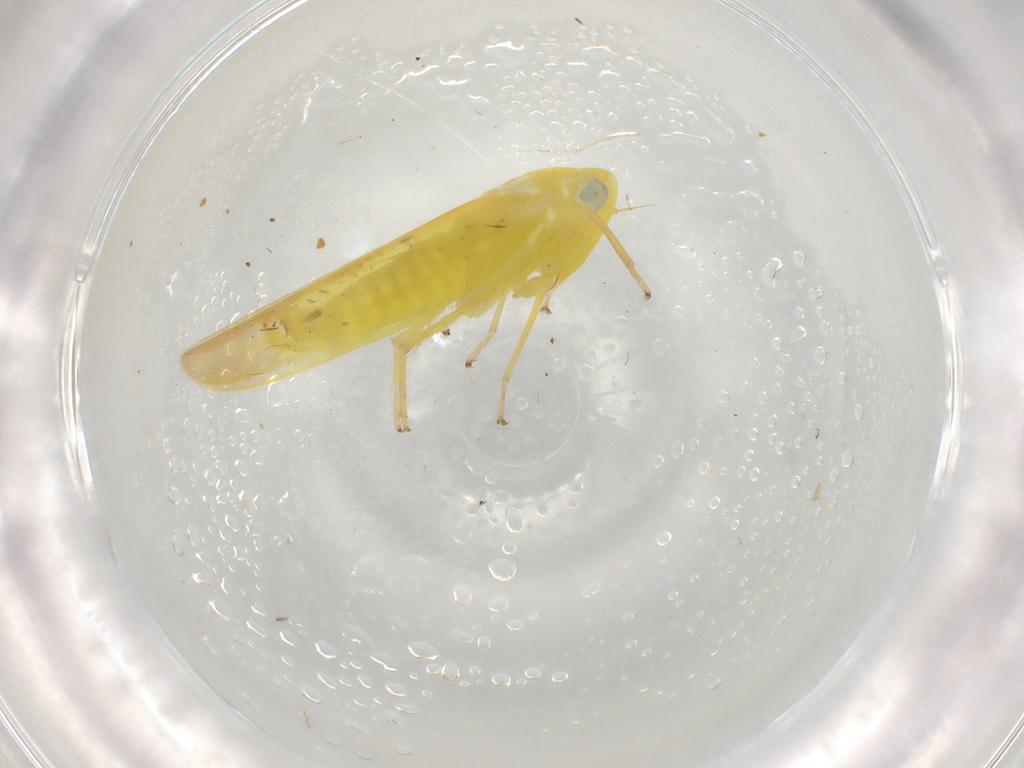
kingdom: Animalia
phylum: Arthropoda
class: Insecta
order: Hemiptera
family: Cicadellidae
